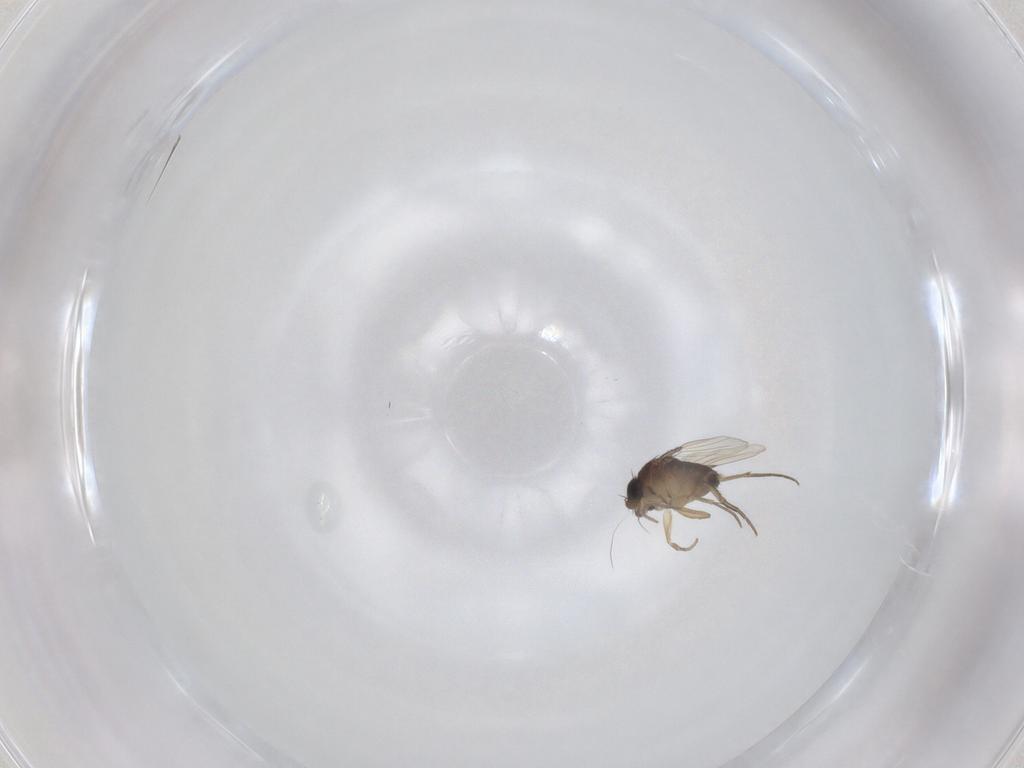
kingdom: Animalia
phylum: Arthropoda
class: Insecta
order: Diptera
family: Phoridae
